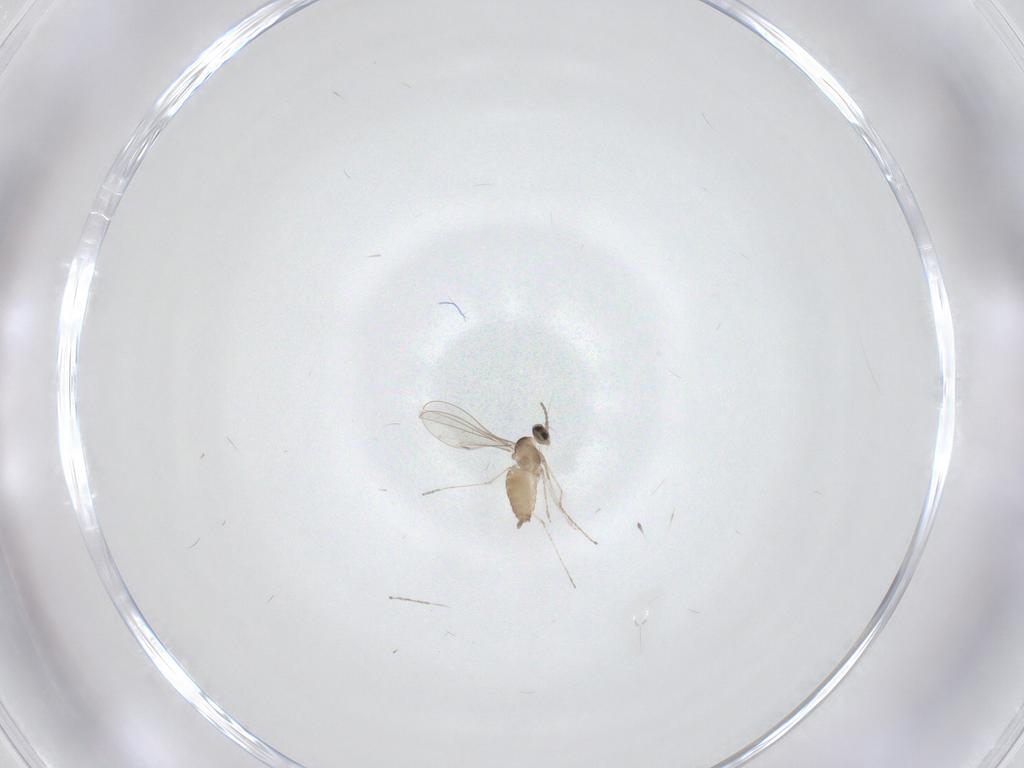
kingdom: Animalia
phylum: Arthropoda
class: Insecta
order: Diptera
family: Cecidomyiidae
